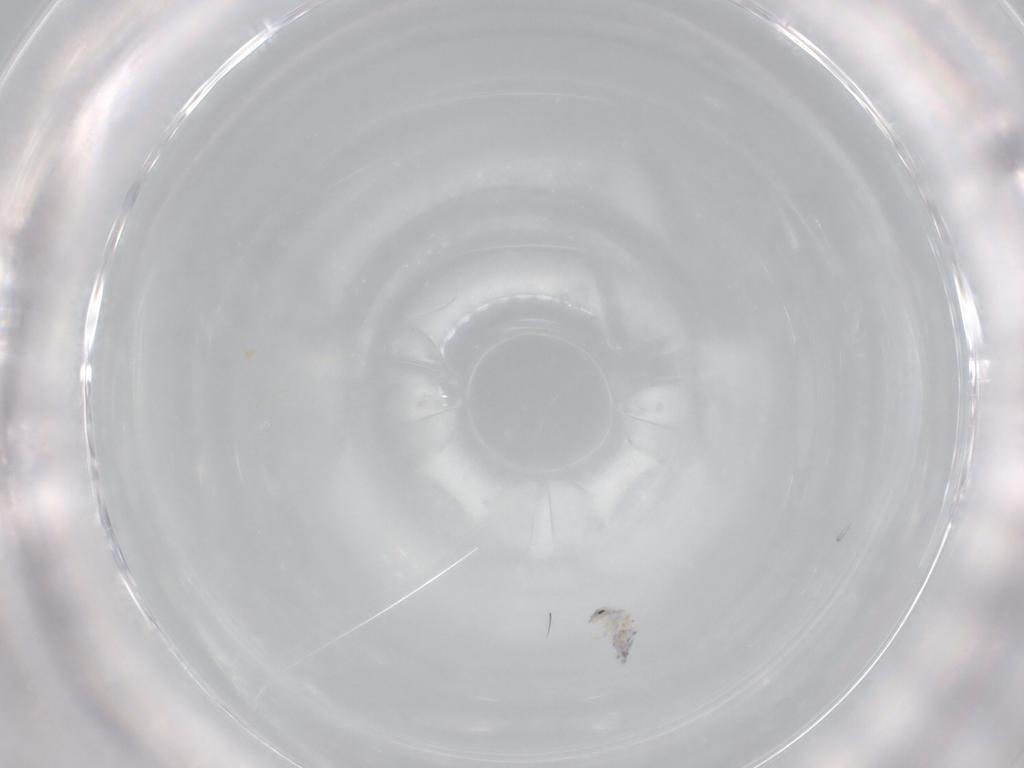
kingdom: Animalia
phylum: Arthropoda
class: Collembola
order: Entomobryomorpha
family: Entomobryidae
